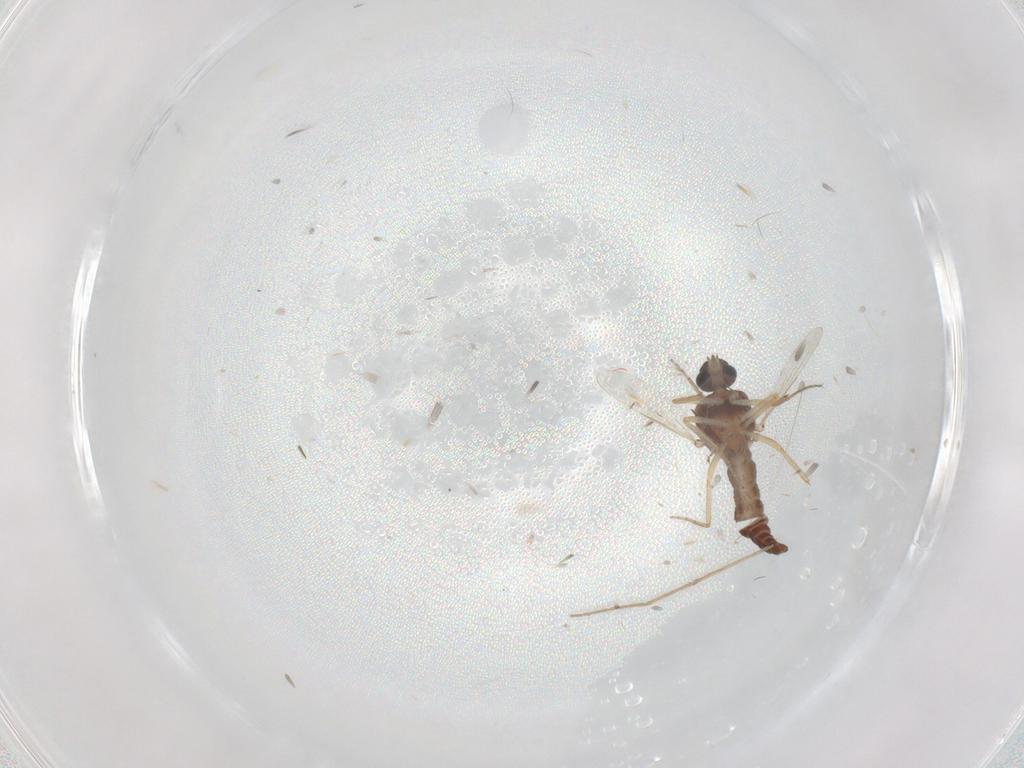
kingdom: Animalia
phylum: Arthropoda
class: Insecta
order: Diptera
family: Ceratopogonidae
